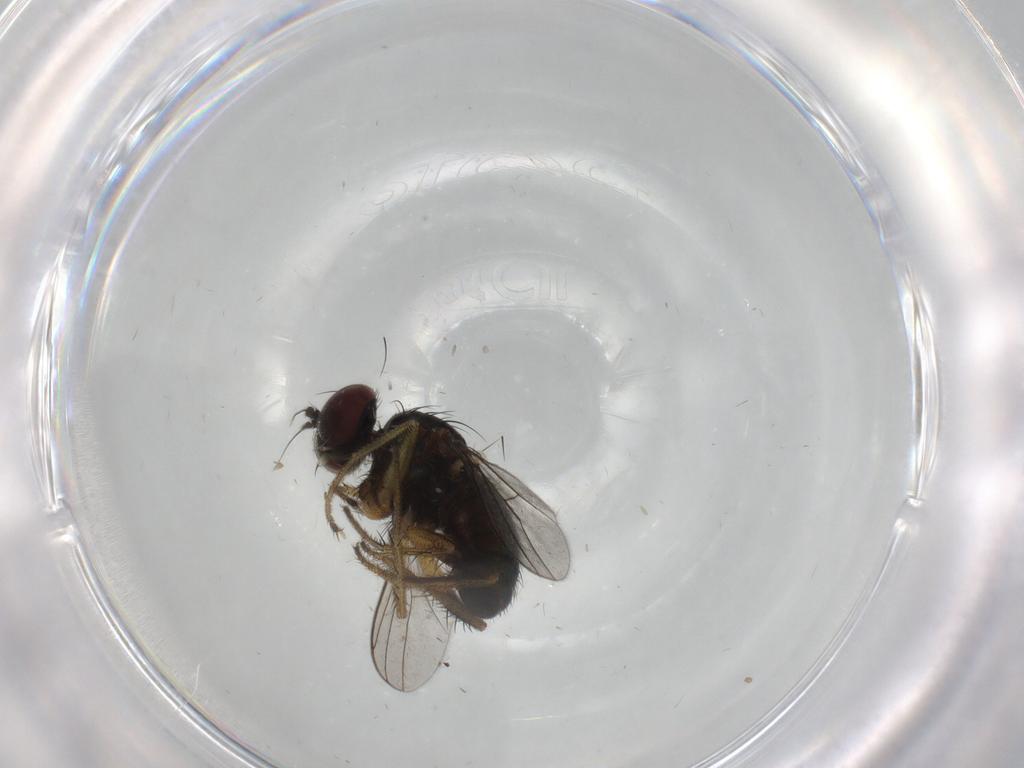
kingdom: Animalia
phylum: Arthropoda
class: Insecta
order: Diptera
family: Dolichopodidae
